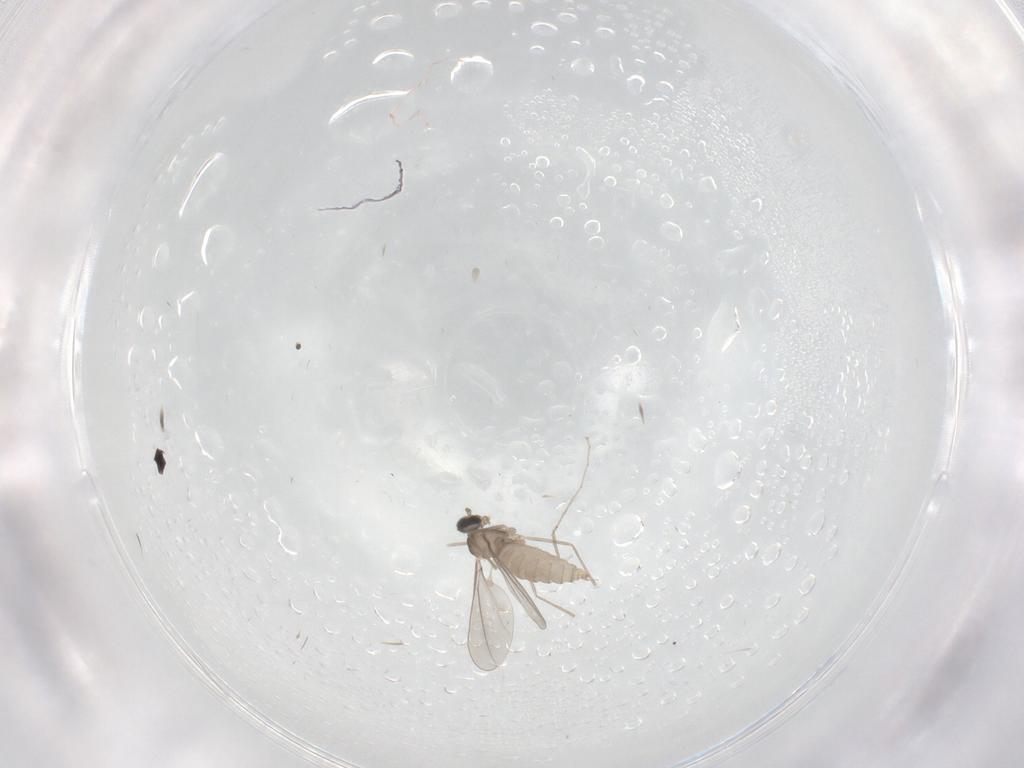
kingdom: Animalia
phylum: Arthropoda
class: Insecta
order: Diptera
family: Chironomidae
